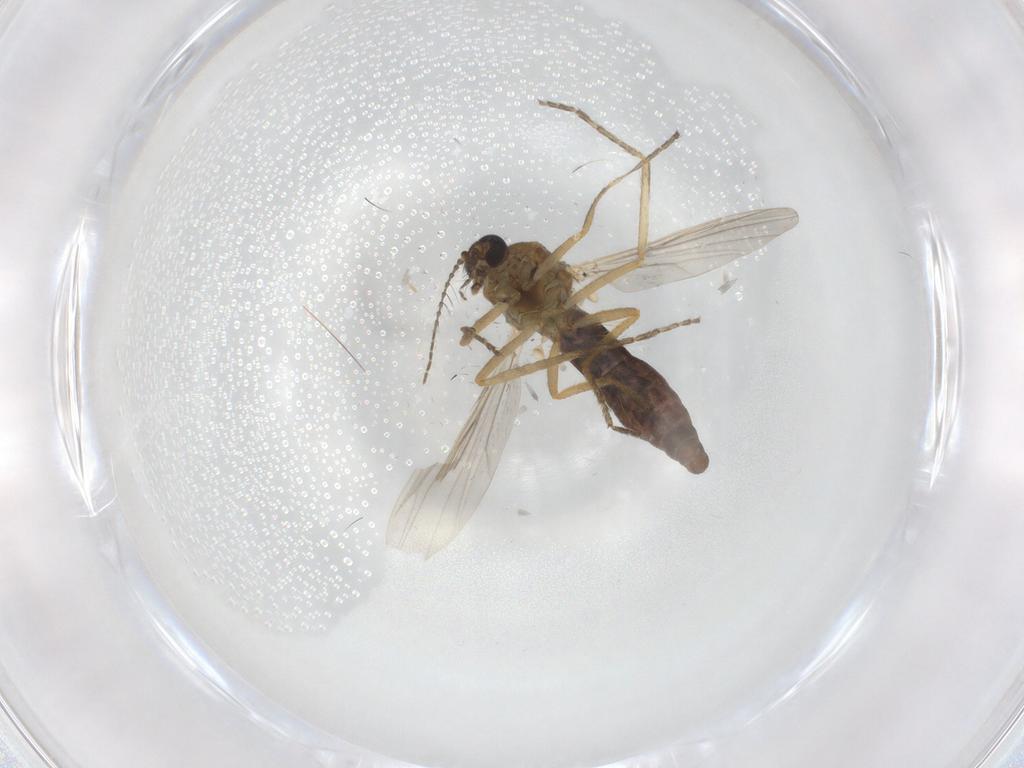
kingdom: Animalia
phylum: Arthropoda
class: Insecta
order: Diptera
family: Ceratopogonidae
